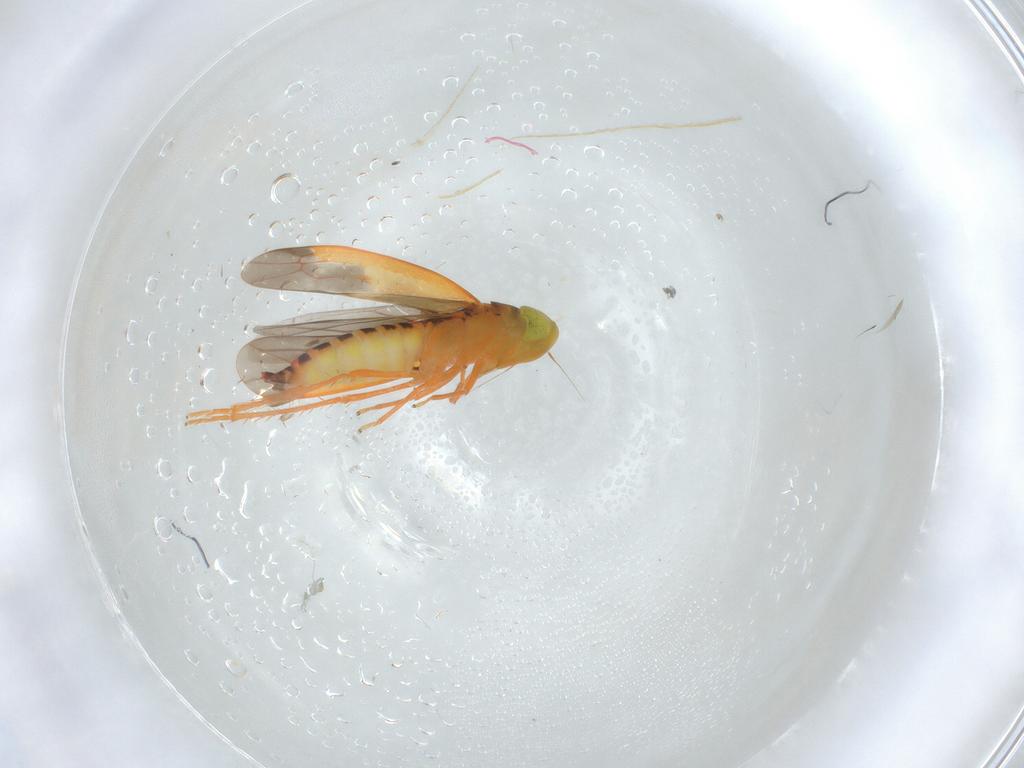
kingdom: Animalia
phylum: Arthropoda
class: Insecta
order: Hemiptera
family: Cicadellidae
